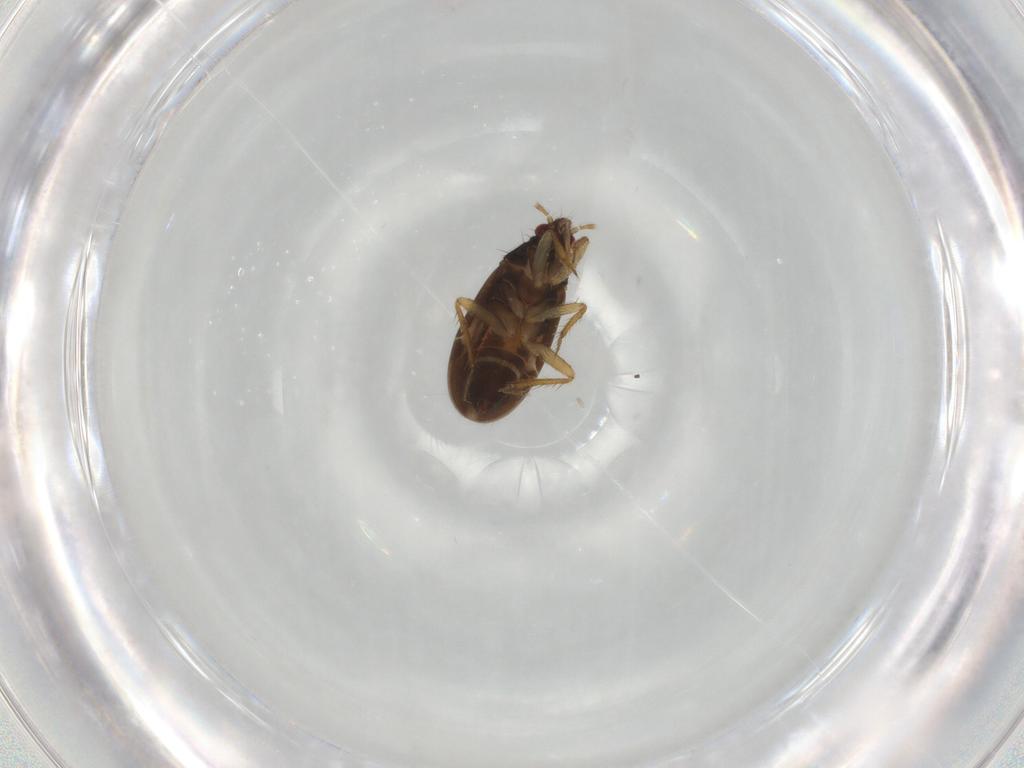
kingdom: Animalia
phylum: Arthropoda
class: Insecta
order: Hemiptera
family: Ceratocombidae
